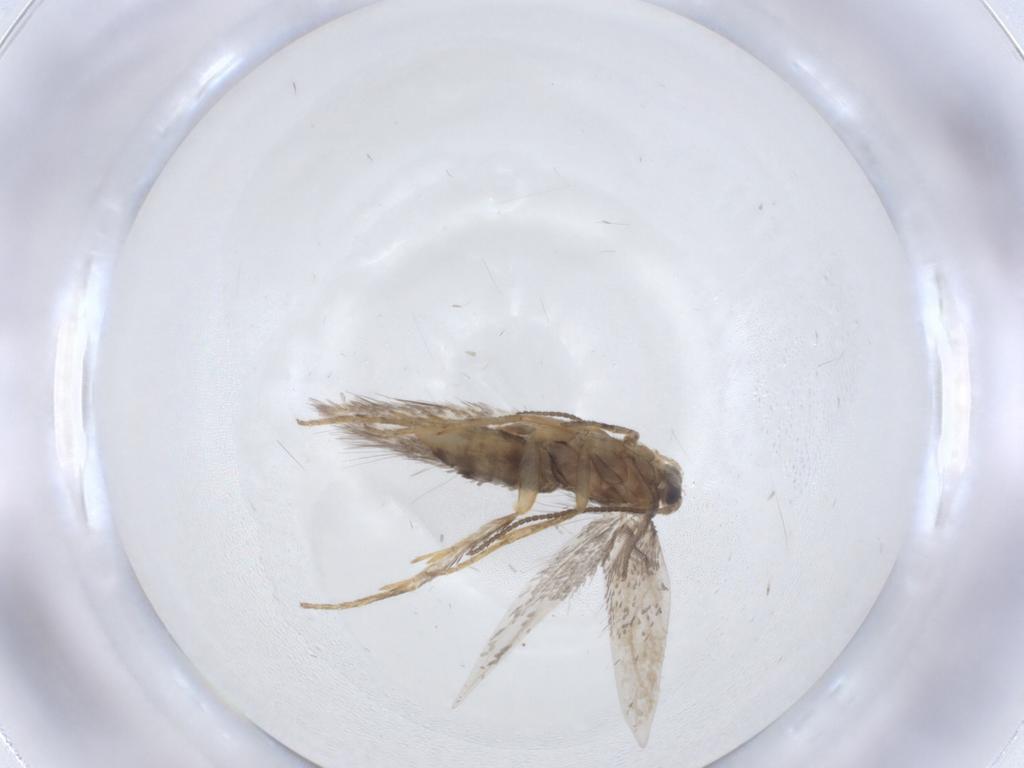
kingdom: Animalia
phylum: Arthropoda
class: Insecta
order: Lepidoptera
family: Nepticulidae
